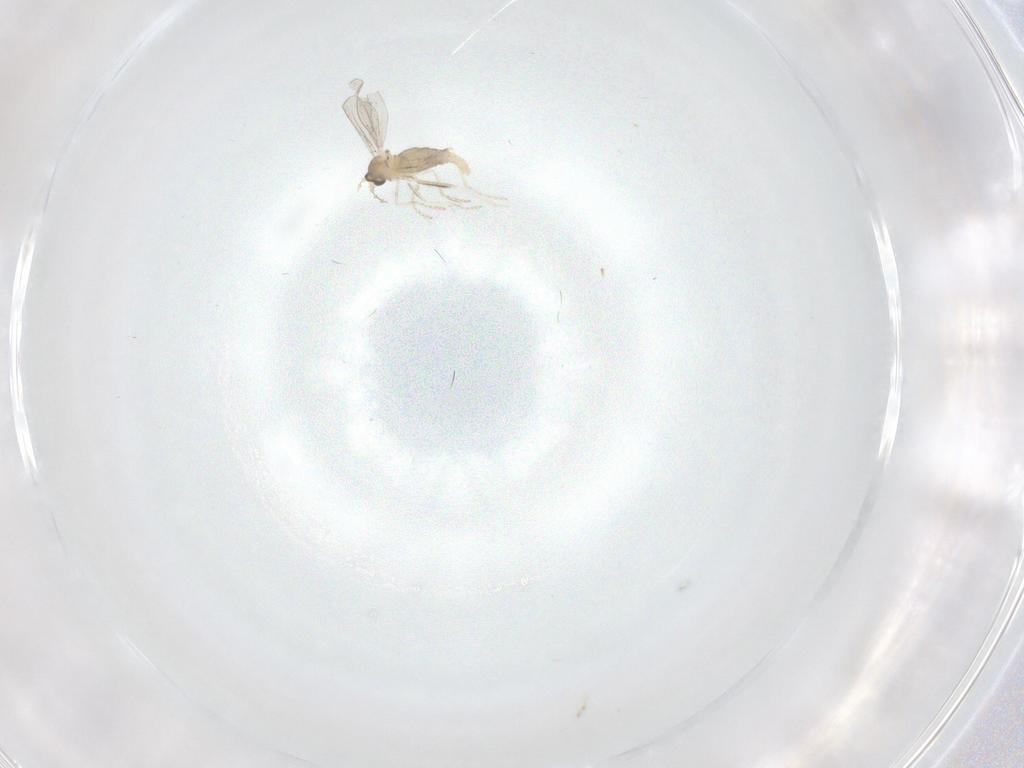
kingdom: Animalia
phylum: Arthropoda
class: Insecta
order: Diptera
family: Cecidomyiidae
